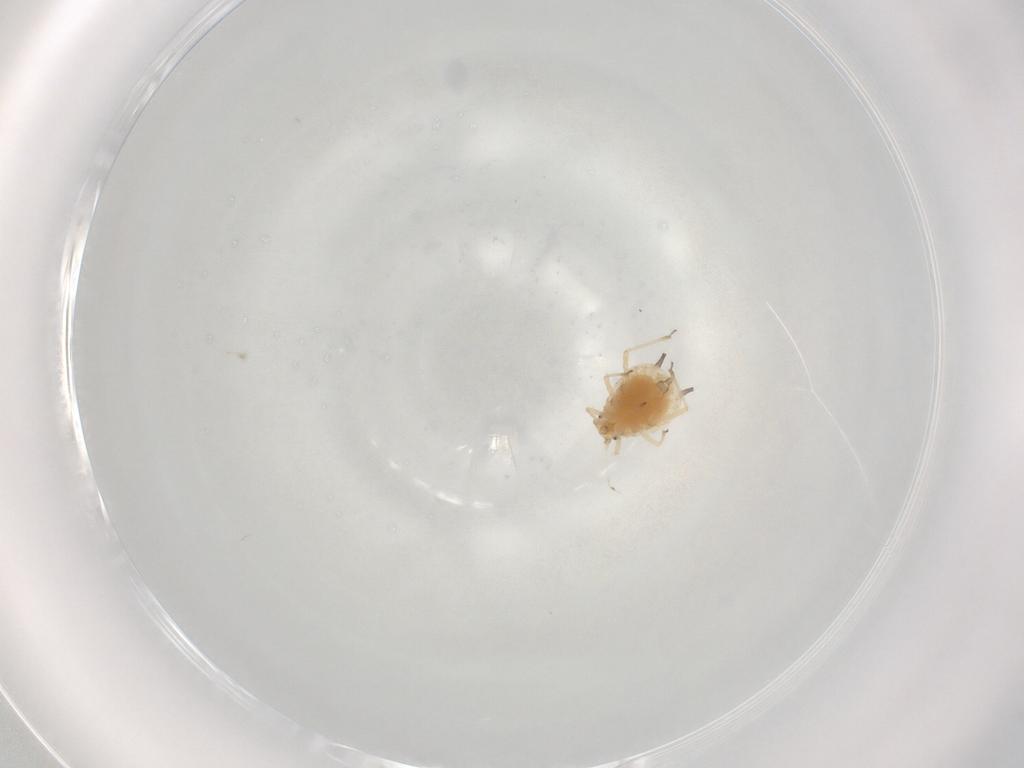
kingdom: Animalia
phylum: Arthropoda
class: Insecta
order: Hemiptera
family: Aphididae
